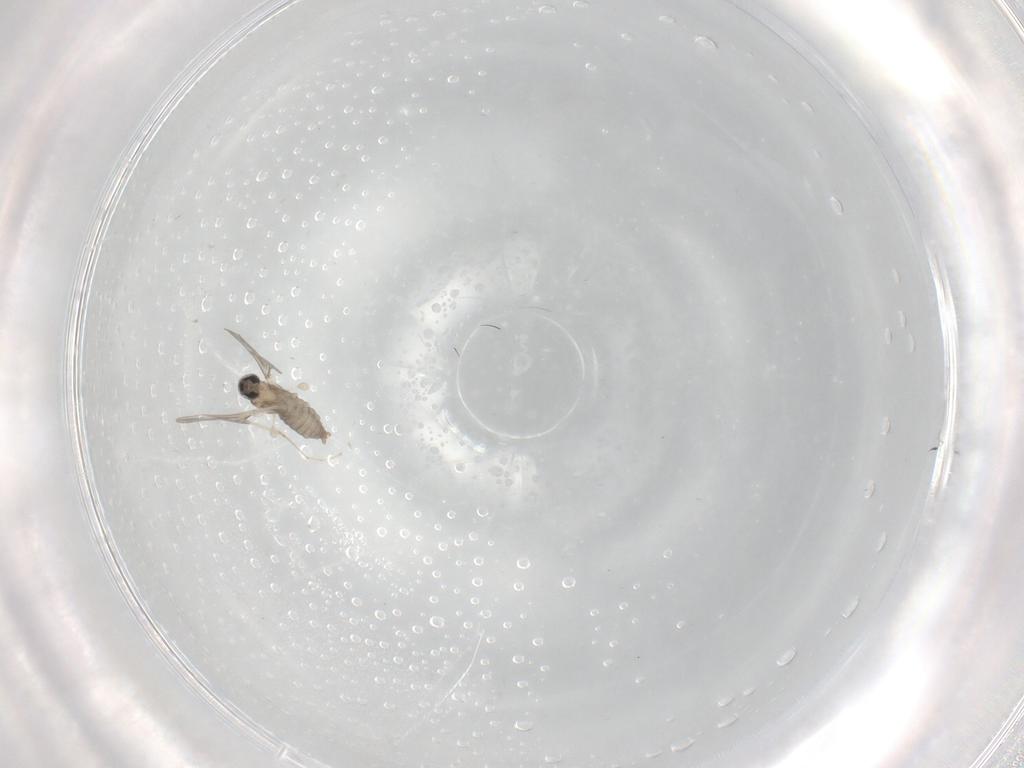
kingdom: Animalia
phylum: Arthropoda
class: Insecta
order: Diptera
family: Cecidomyiidae
